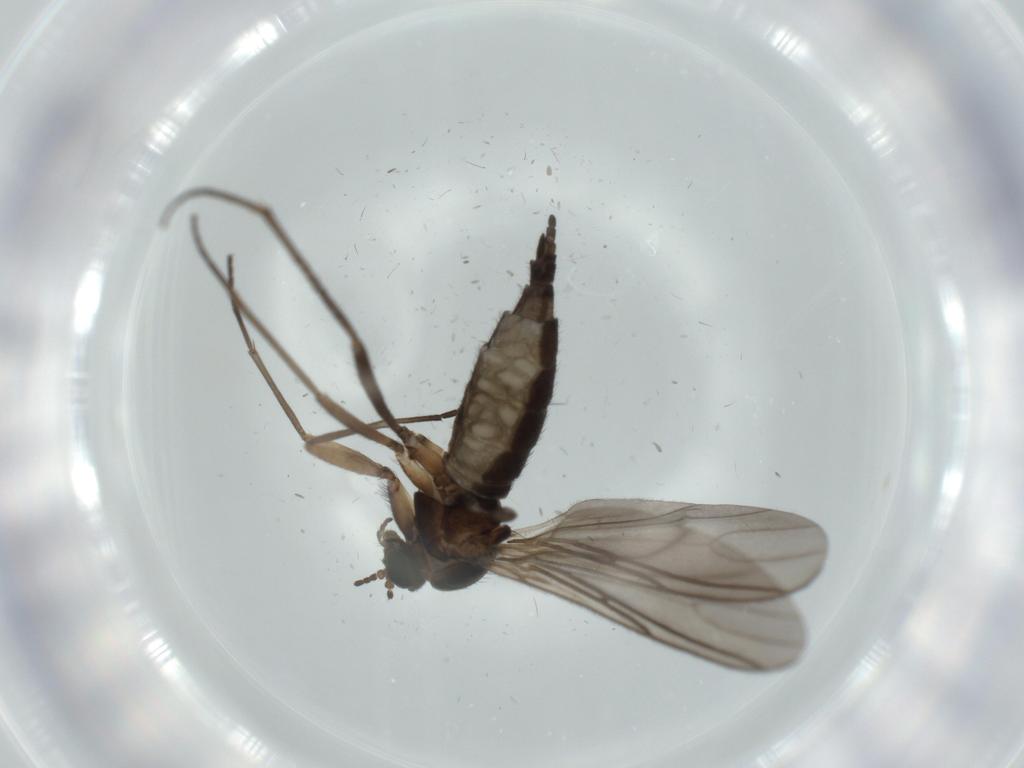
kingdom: Animalia
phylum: Arthropoda
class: Insecta
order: Diptera
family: Sciaridae
